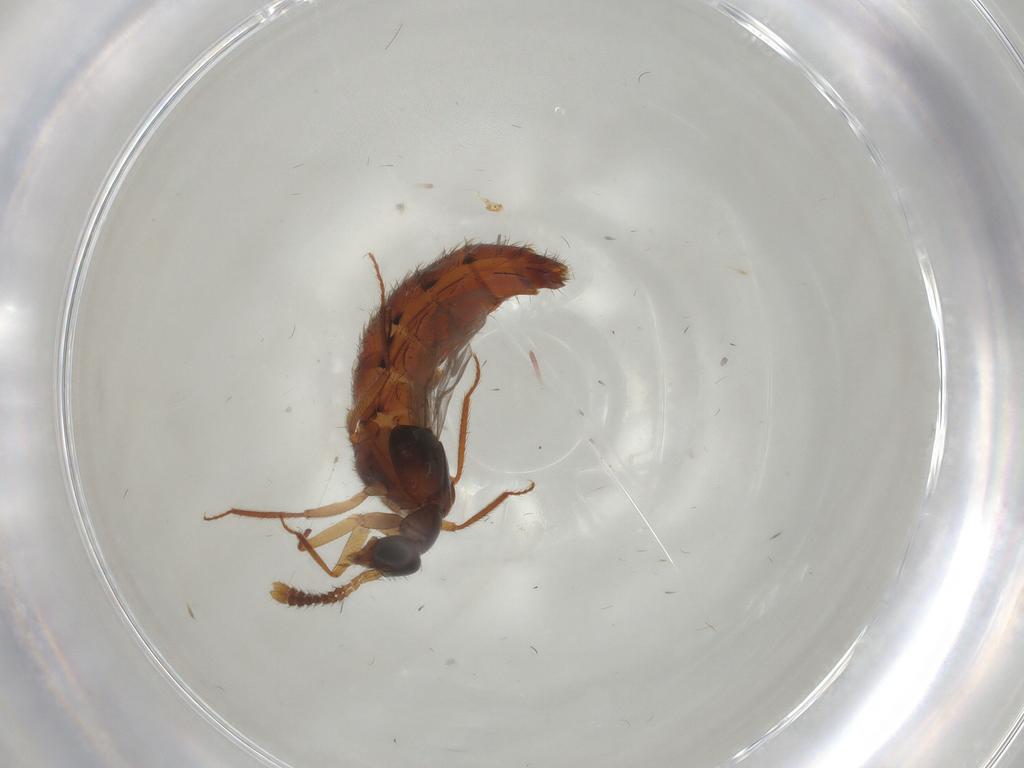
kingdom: Animalia
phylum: Arthropoda
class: Insecta
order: Coleoptera
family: Staphylinidae
